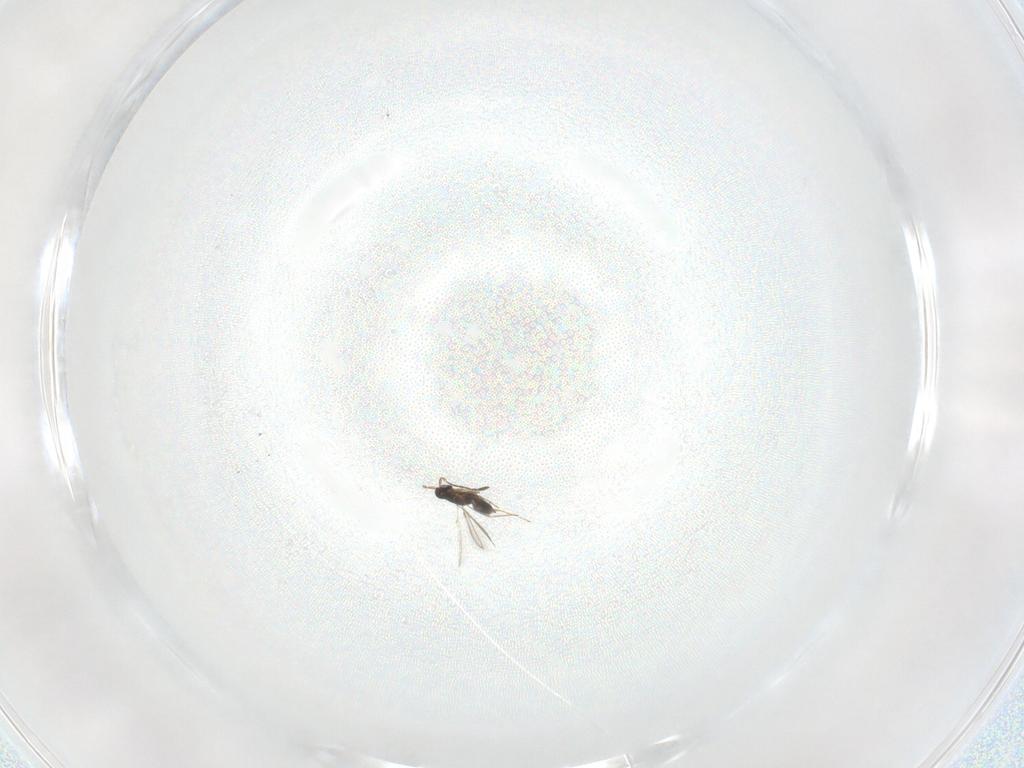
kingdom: Animalia
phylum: Arthropoda
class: Insecta
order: Hymenoptera
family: Mymaridae
